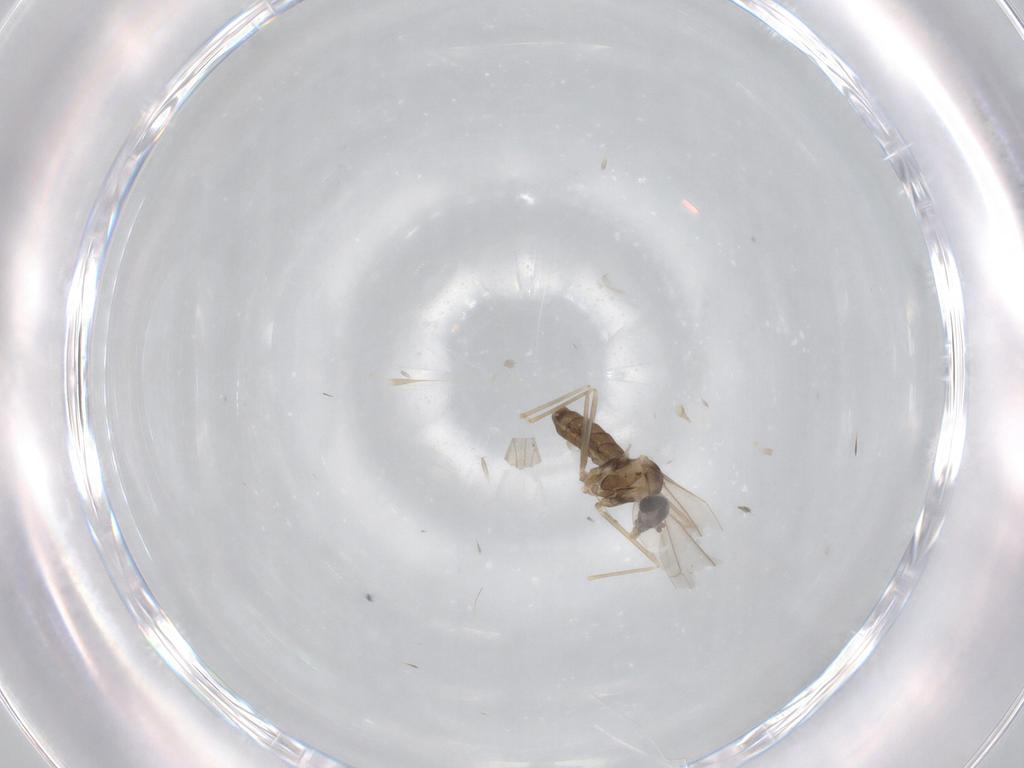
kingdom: Animalia
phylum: Arthropoda
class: Insecta
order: Diptera
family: Cecidomyiidae
